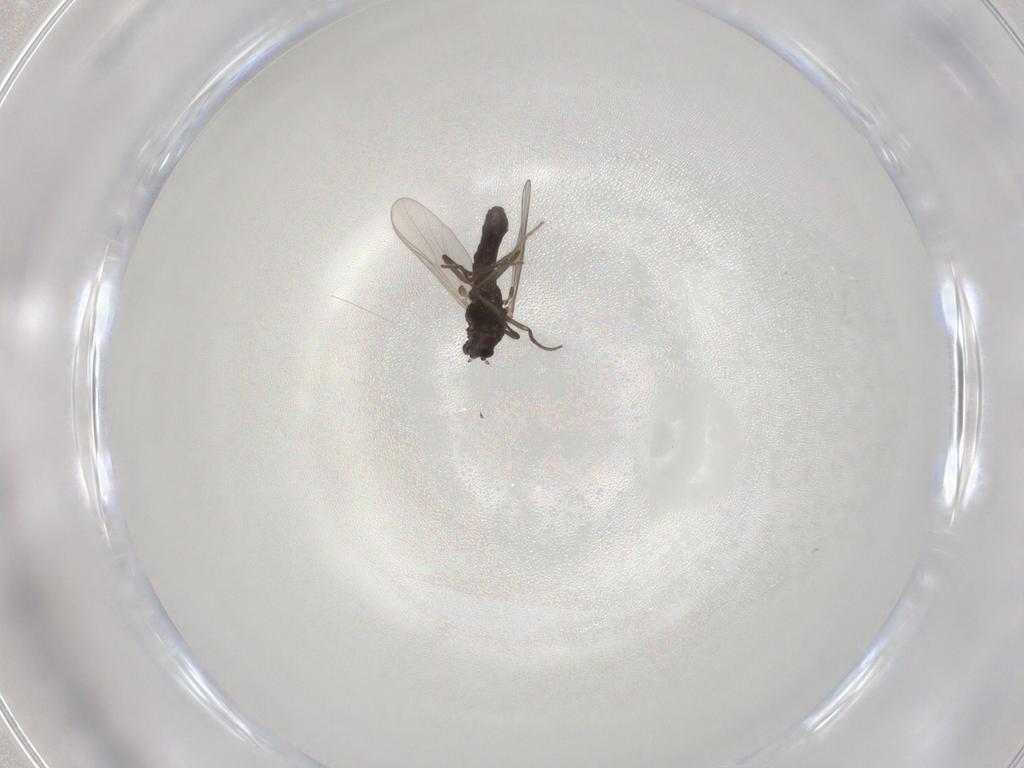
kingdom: Animalia
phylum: Arthropoda
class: Insecta
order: Diptera
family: Chironomidae
